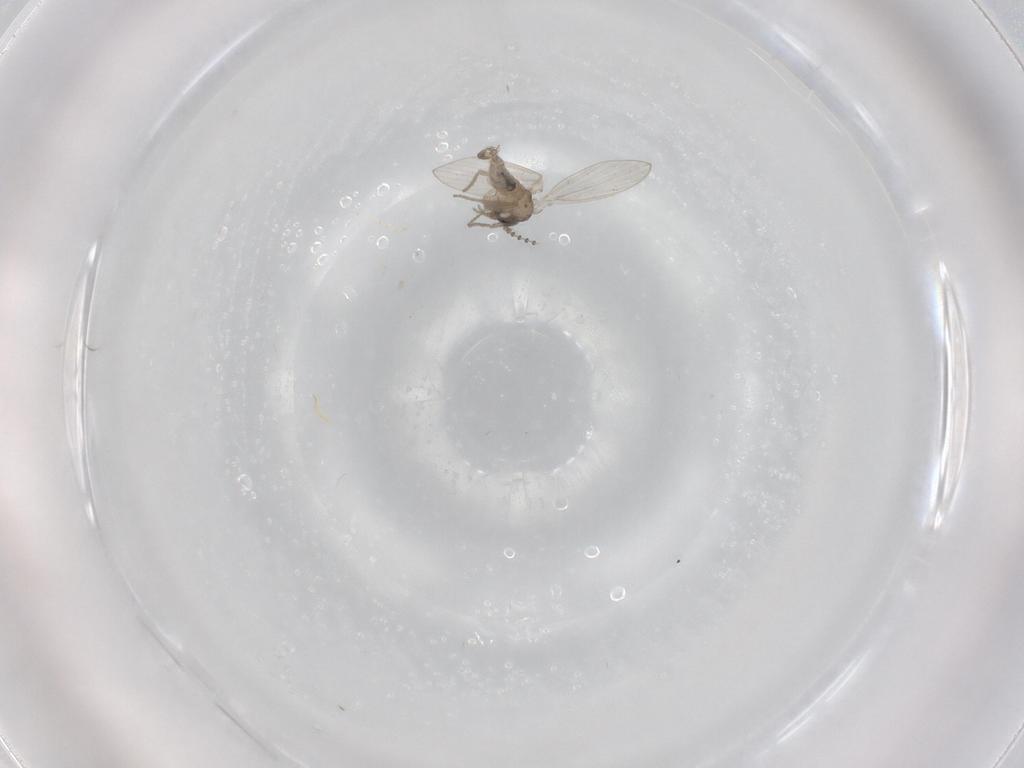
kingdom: Animalia
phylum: Arthropoda
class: Insecta
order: Diptera
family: Psychodidae
